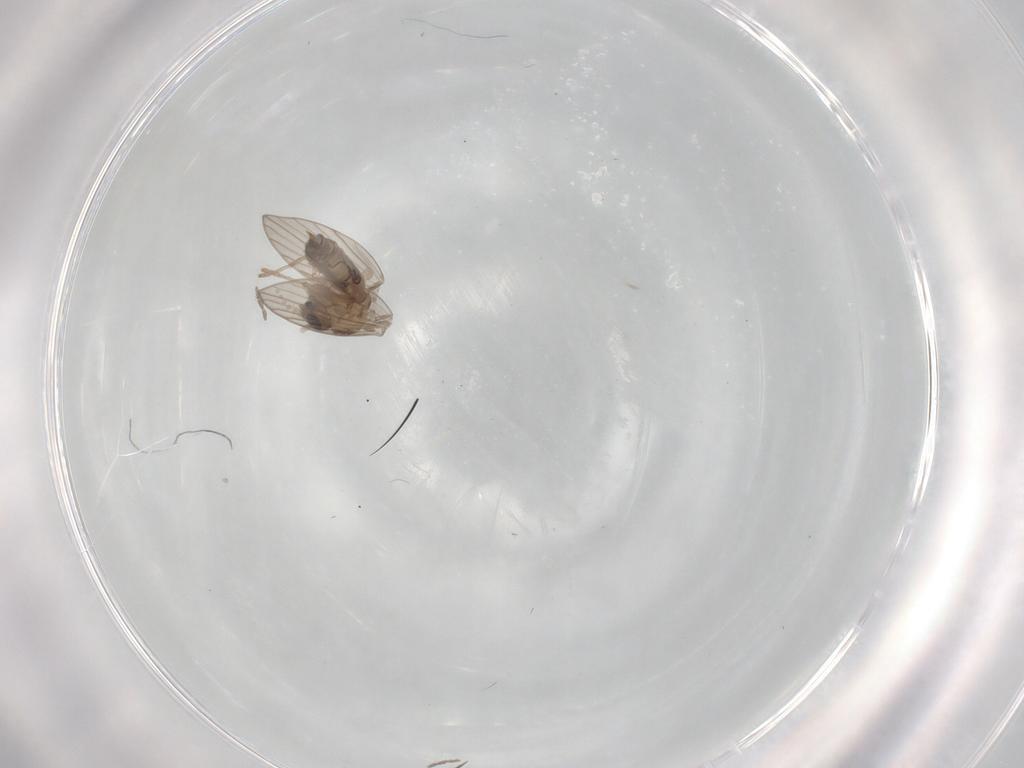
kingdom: Animalia
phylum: Arthropoda
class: Insecta
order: Diptera
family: Psychodidae
